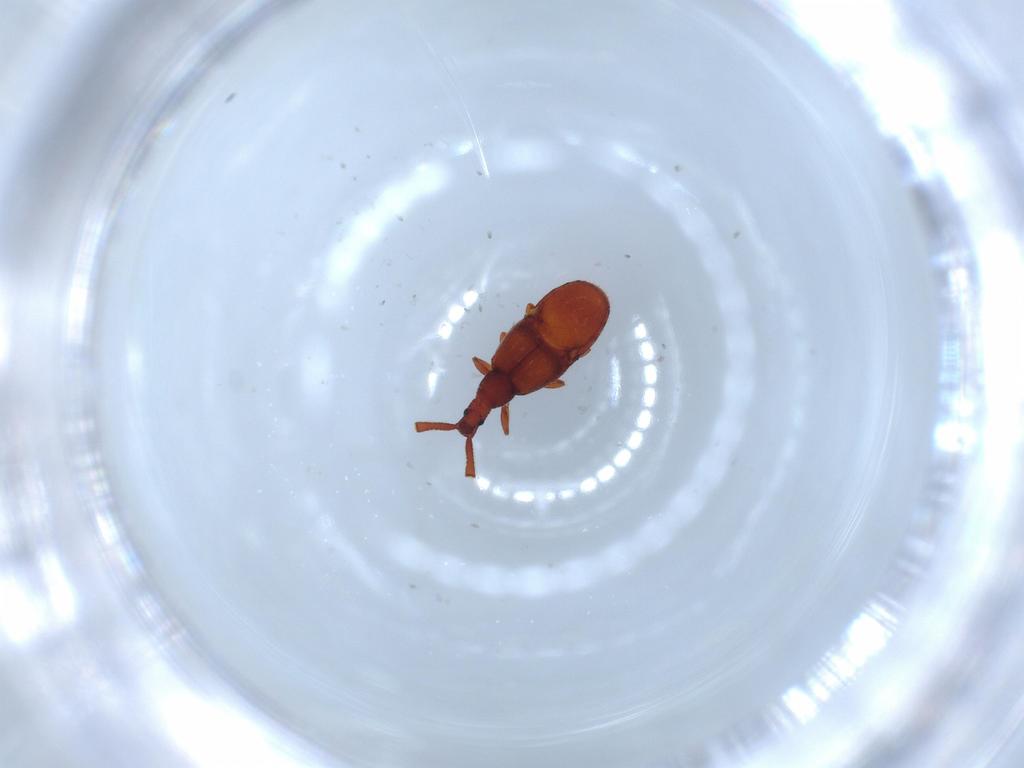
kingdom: Animalia
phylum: Arthropoda
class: Insecta
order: Coleoptera
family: Staphylinidae
